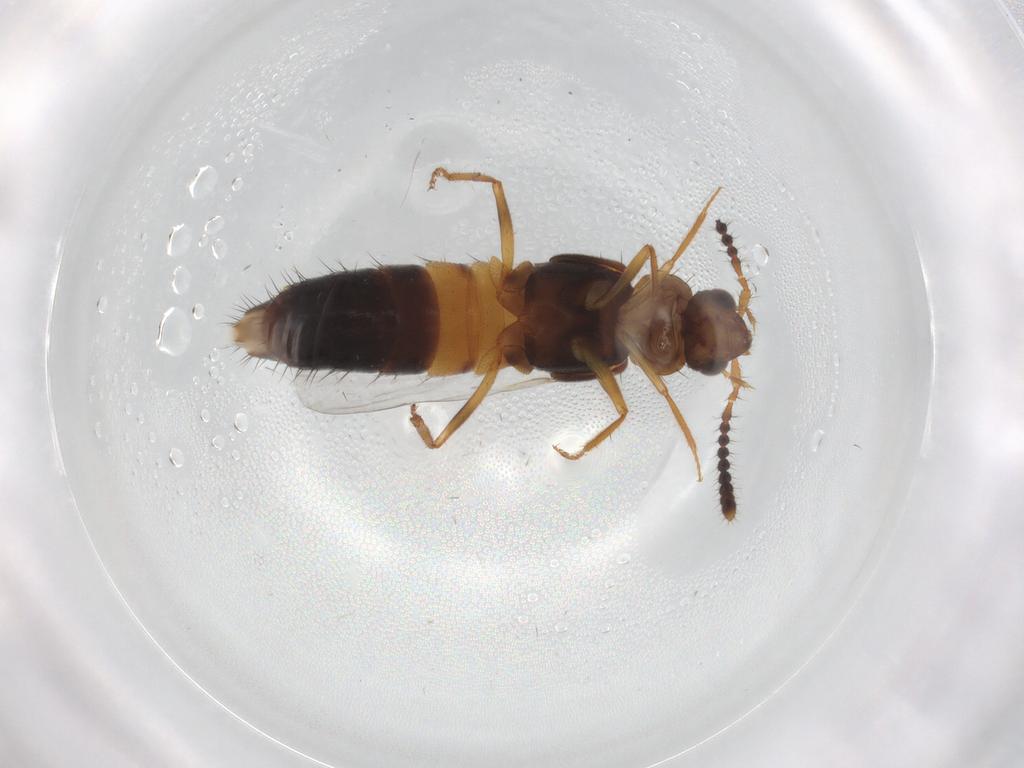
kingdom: Animalia
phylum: Arthropoda
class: Insecta
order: Coleoptera
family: Staphylinidae
